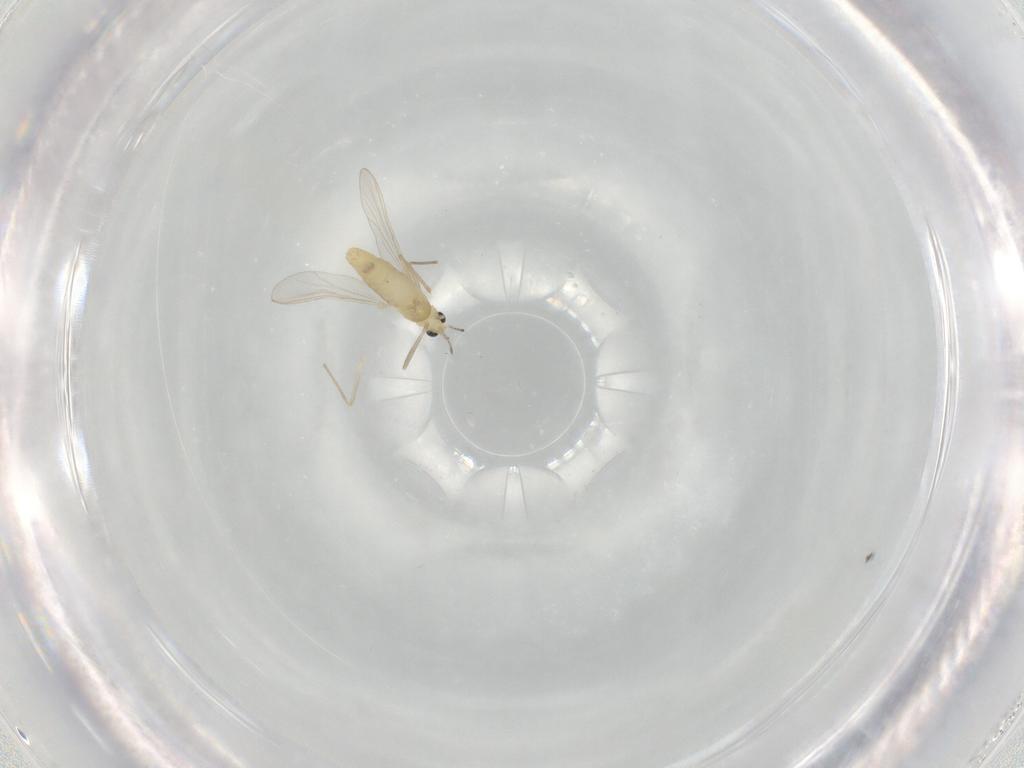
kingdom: Animalia
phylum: Arthropoda
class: Insecta
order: Diptera
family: Chironomidae
